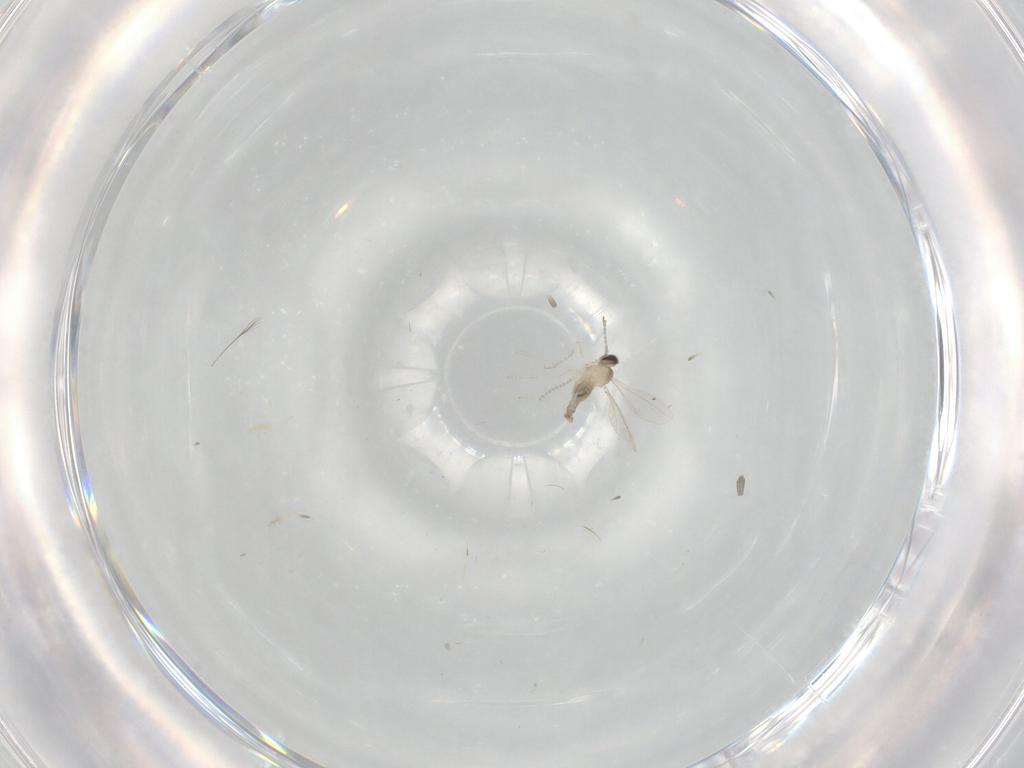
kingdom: Animalia
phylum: Arthropoda
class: Insecta
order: Diptera
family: Cecidomyiidae
